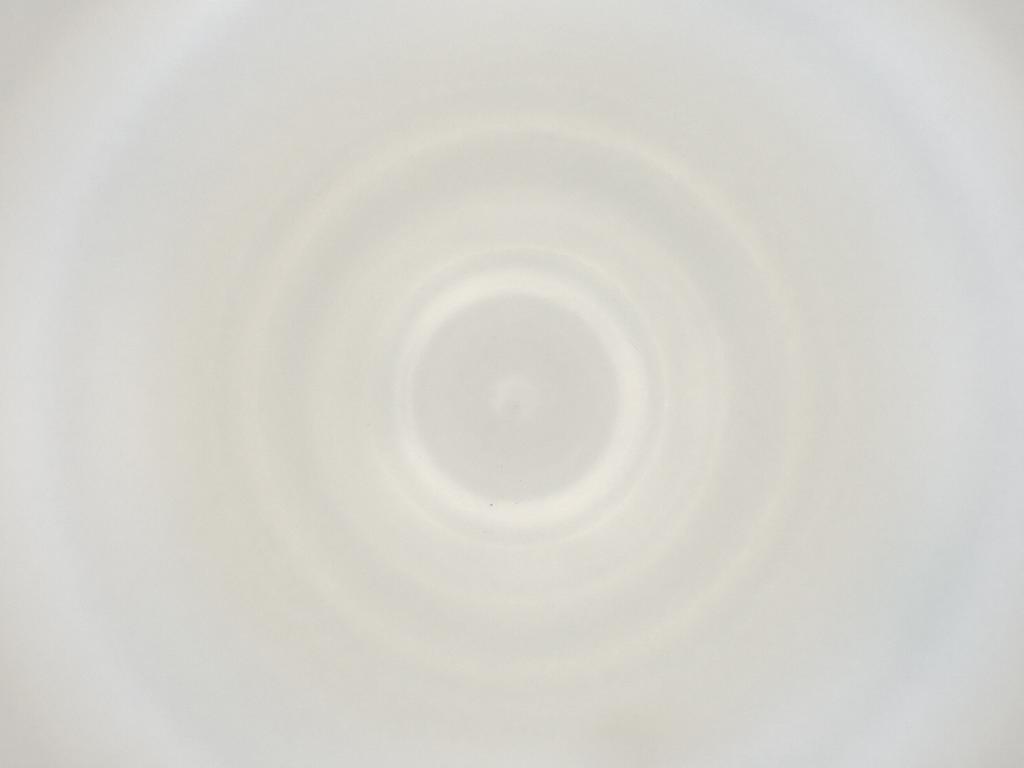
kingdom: Animalia
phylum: Arthropoda
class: Insecta
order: Diptera
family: Cecidomyiidae
